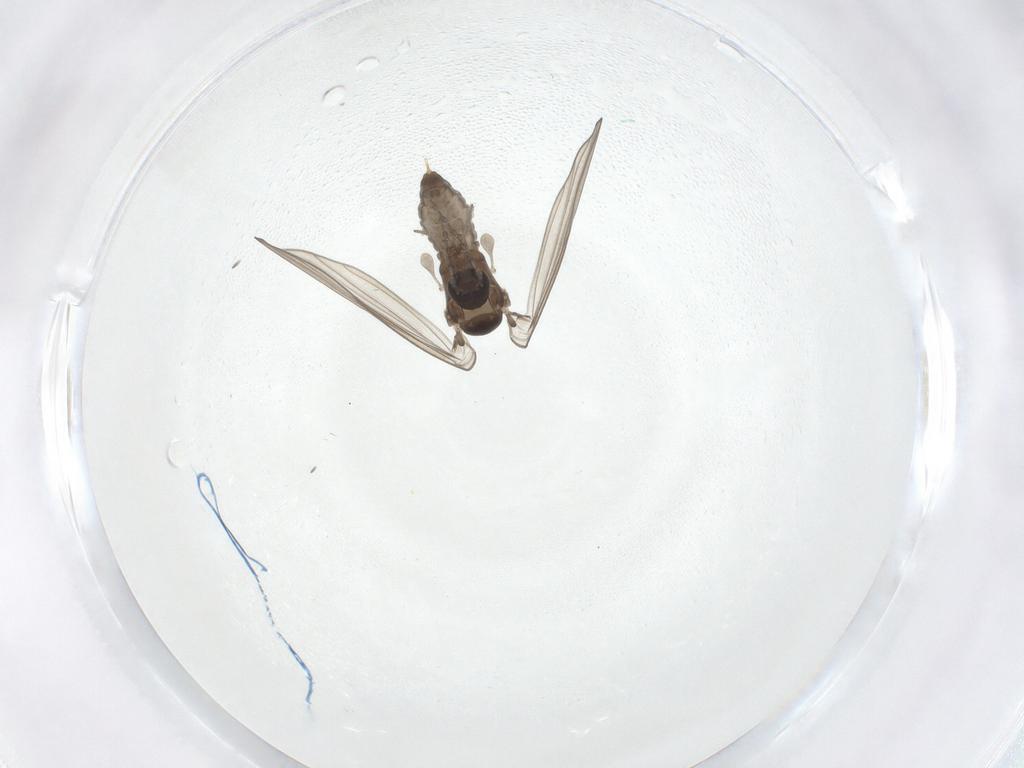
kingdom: Animalia
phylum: Arthropoda
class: Insecta
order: Diptera
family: Psychodidae
